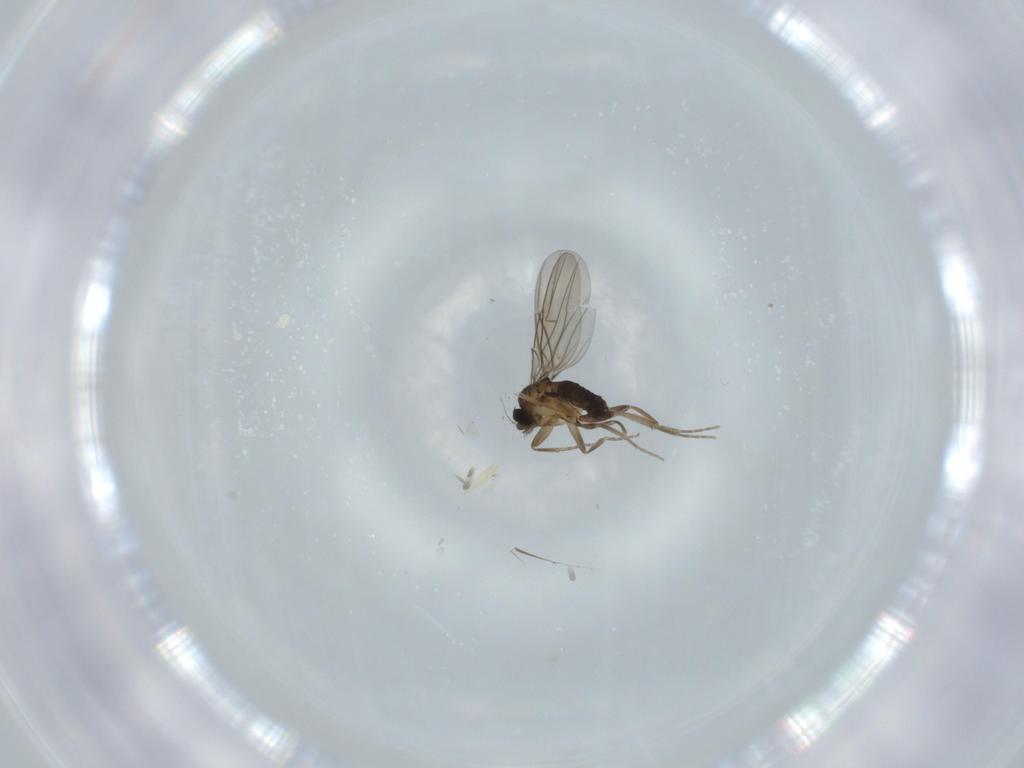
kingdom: Animalia
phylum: Arthropoda
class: Insecta
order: Diptera
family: Phoridae
